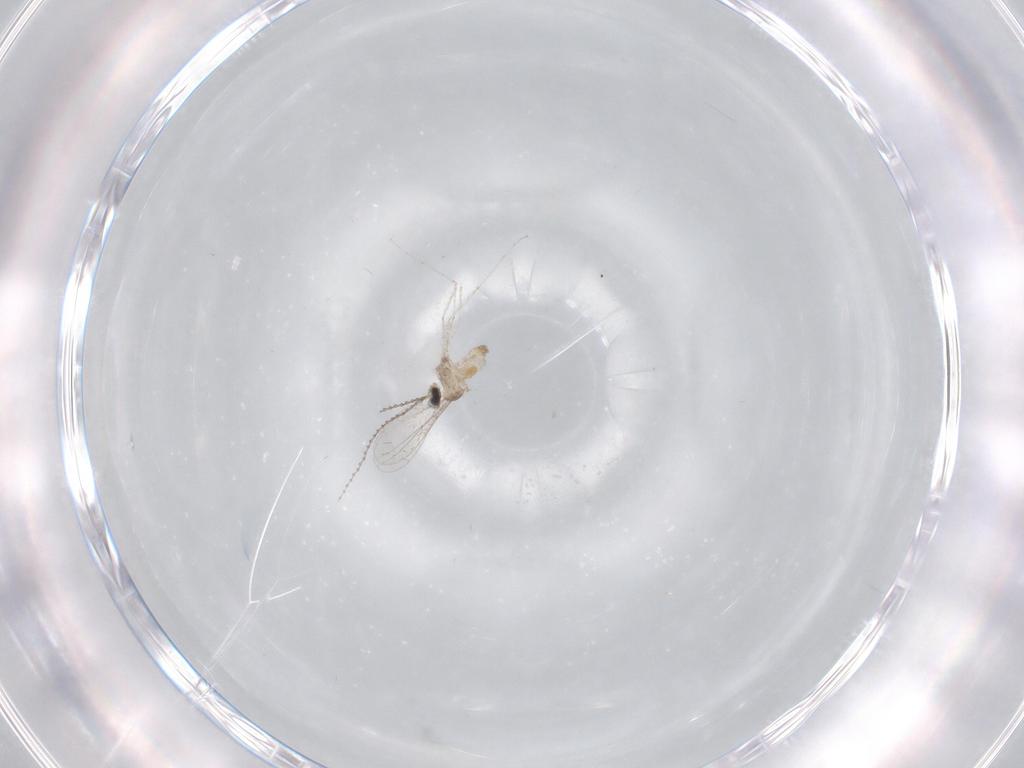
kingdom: Animalia
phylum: Arthropoda
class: Insecta
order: Diptera
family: Cecidomyiidae
